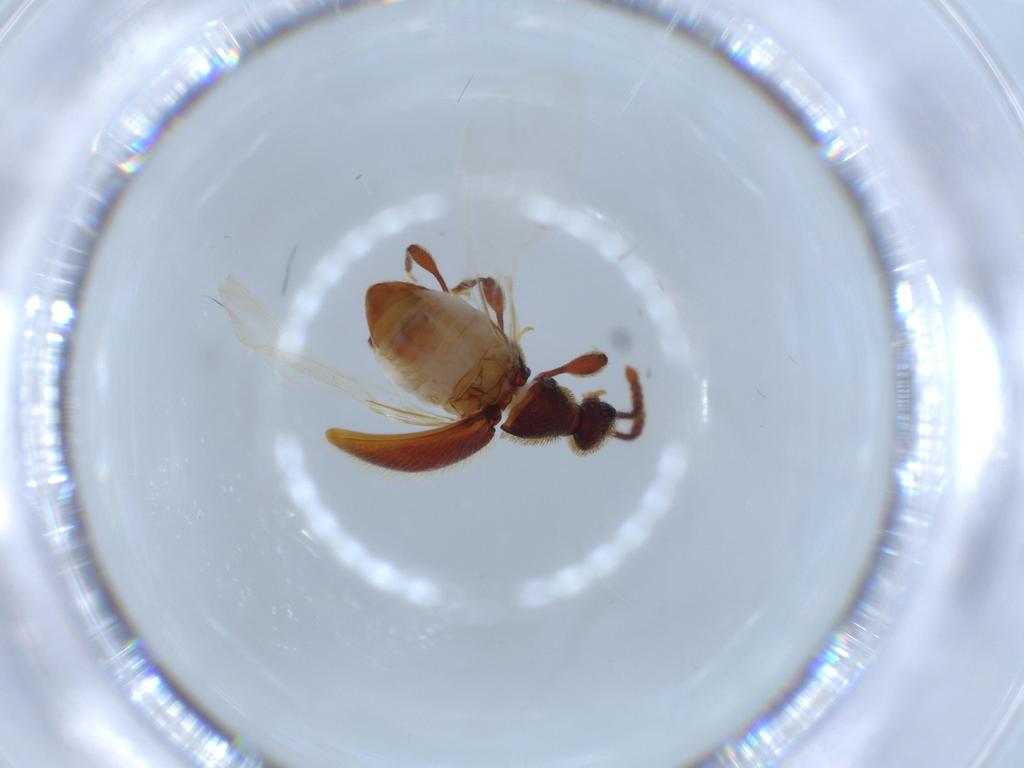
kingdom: Animalia
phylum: Arthropoda
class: Insecta
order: Coleoptera
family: Staphylinidae
